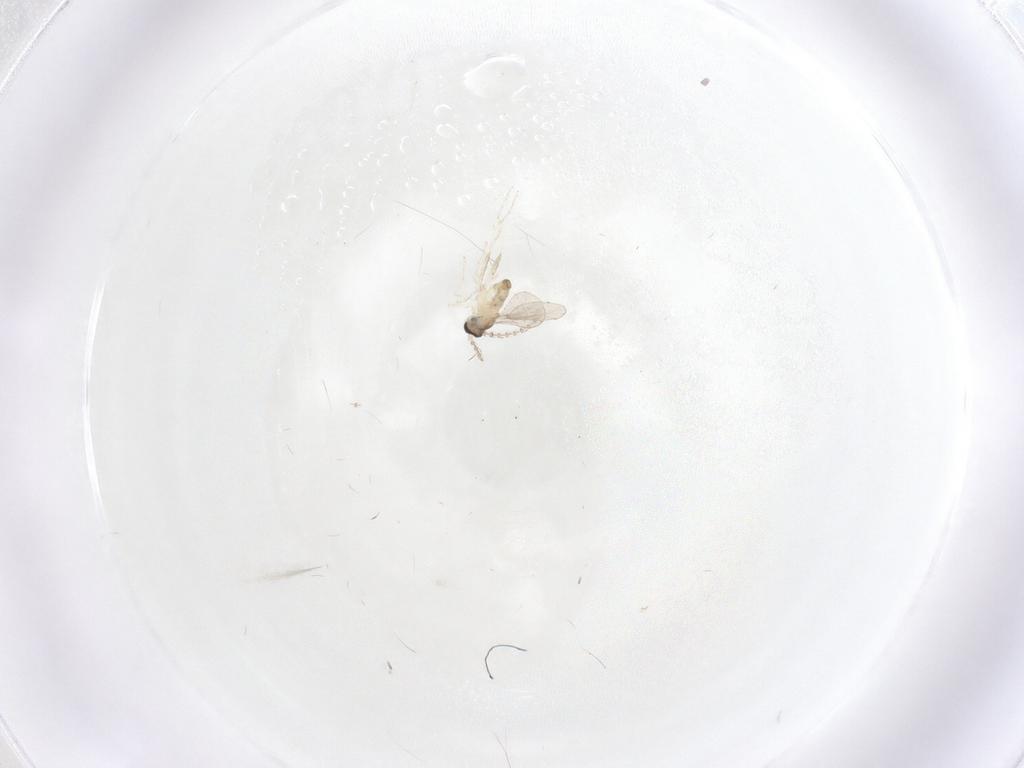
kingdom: Animalia
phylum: Arthropoda
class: Insecta
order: Diptera
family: Cecidomyiidae
